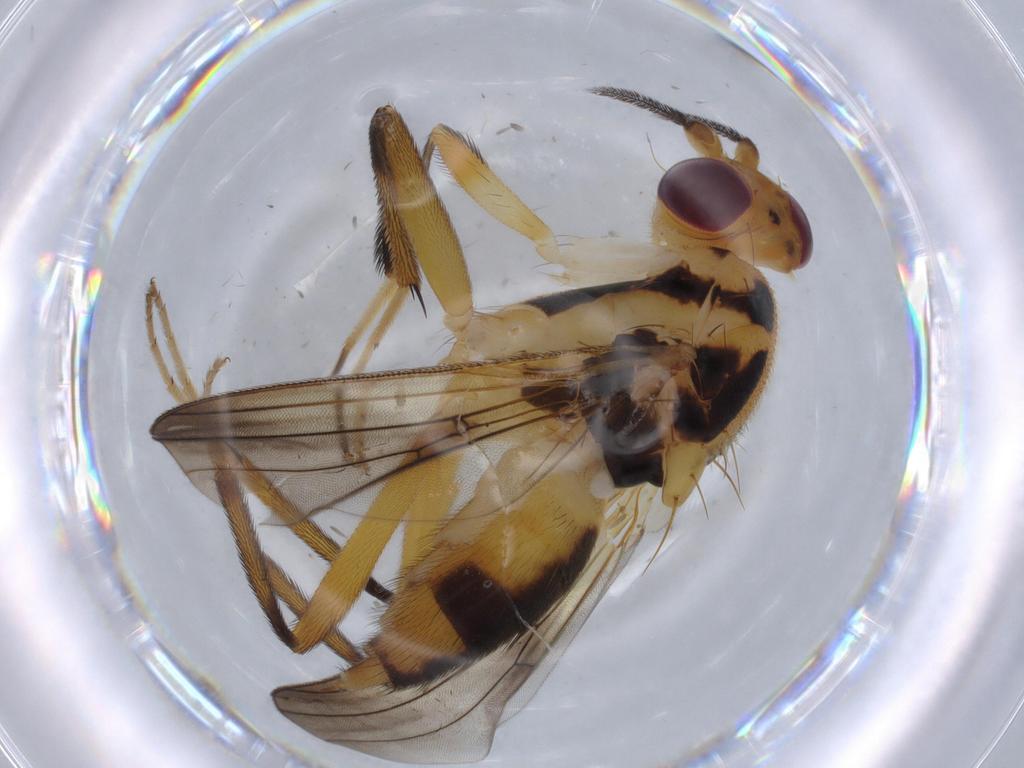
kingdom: Animalia
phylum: Arthropoda
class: Insecta
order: Diptera
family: Clusiidae
